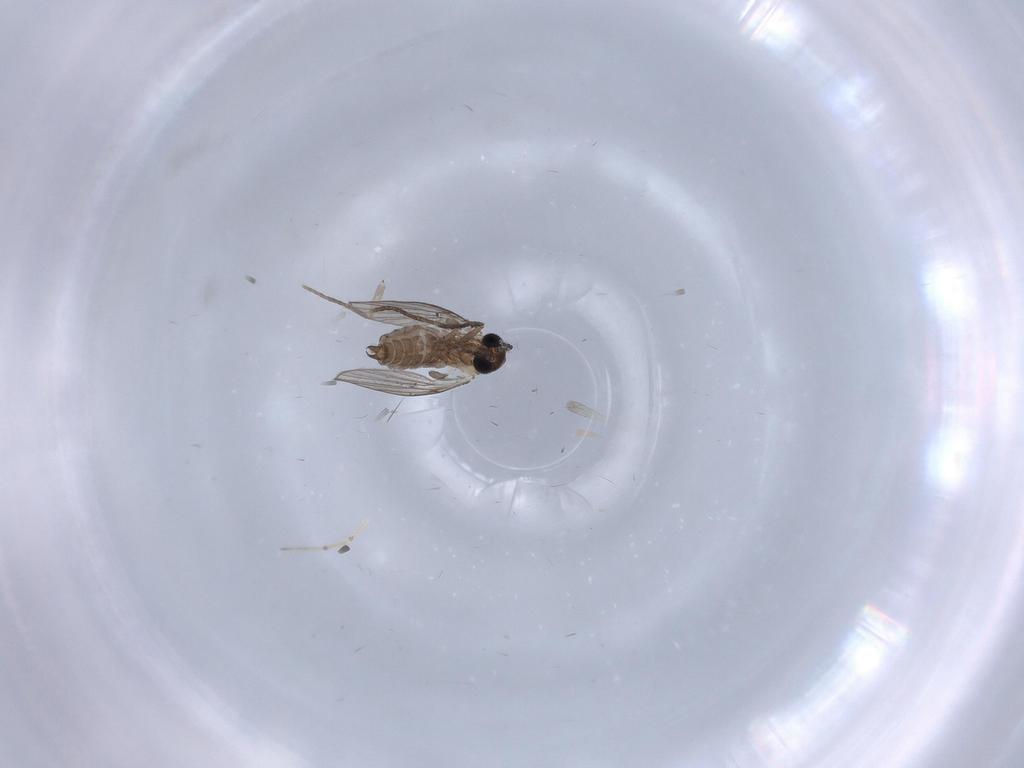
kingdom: Animalia
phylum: Arthropoda
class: Insecta
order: Diptera
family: Psychodidae
